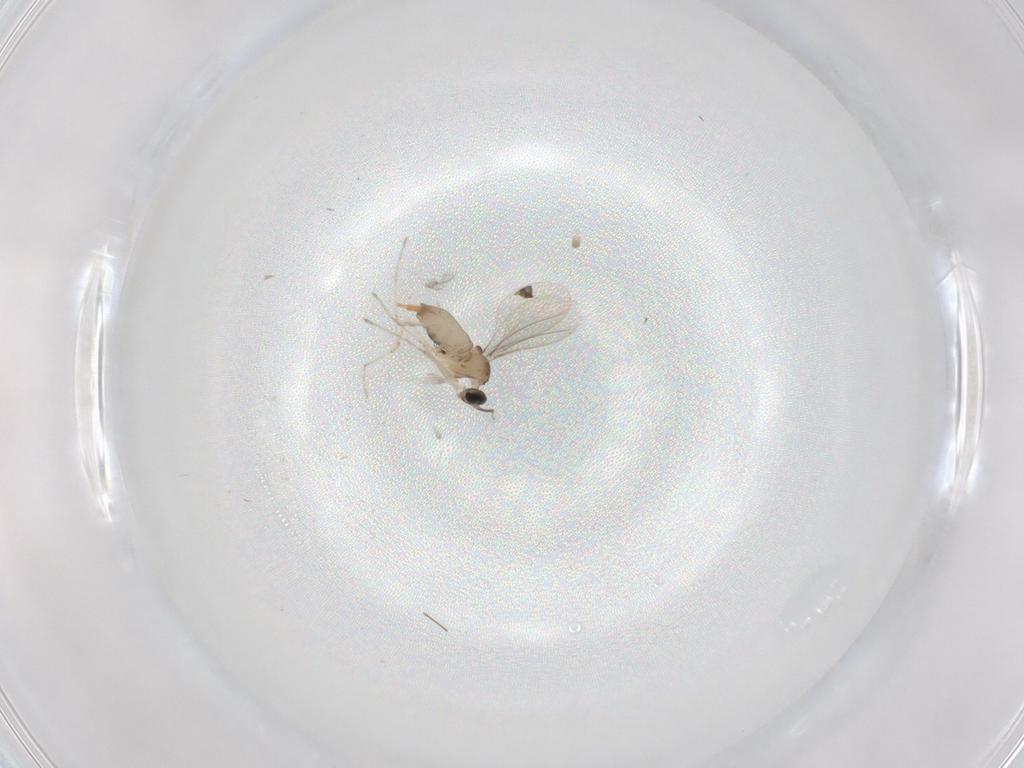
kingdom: Animalia
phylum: Arthropoda
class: Insecta
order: Diptera
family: Cecidomyiidae
